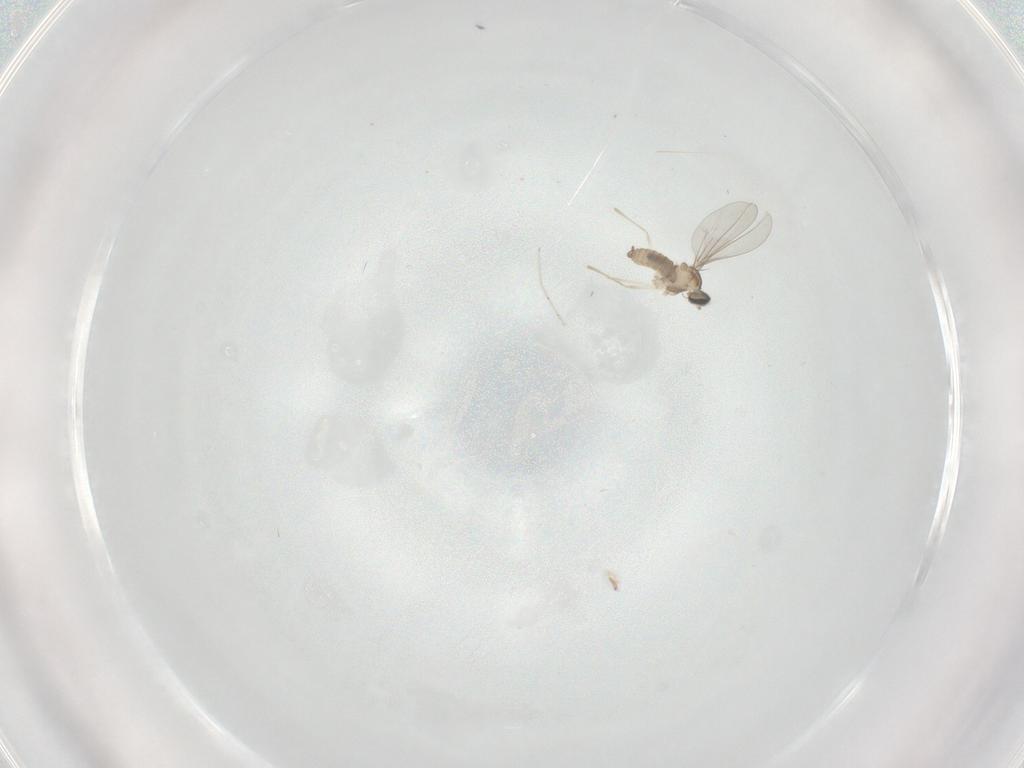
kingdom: Animalia
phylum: Arthropoda
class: Insecta
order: Diptera
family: Cecidomyiidae
